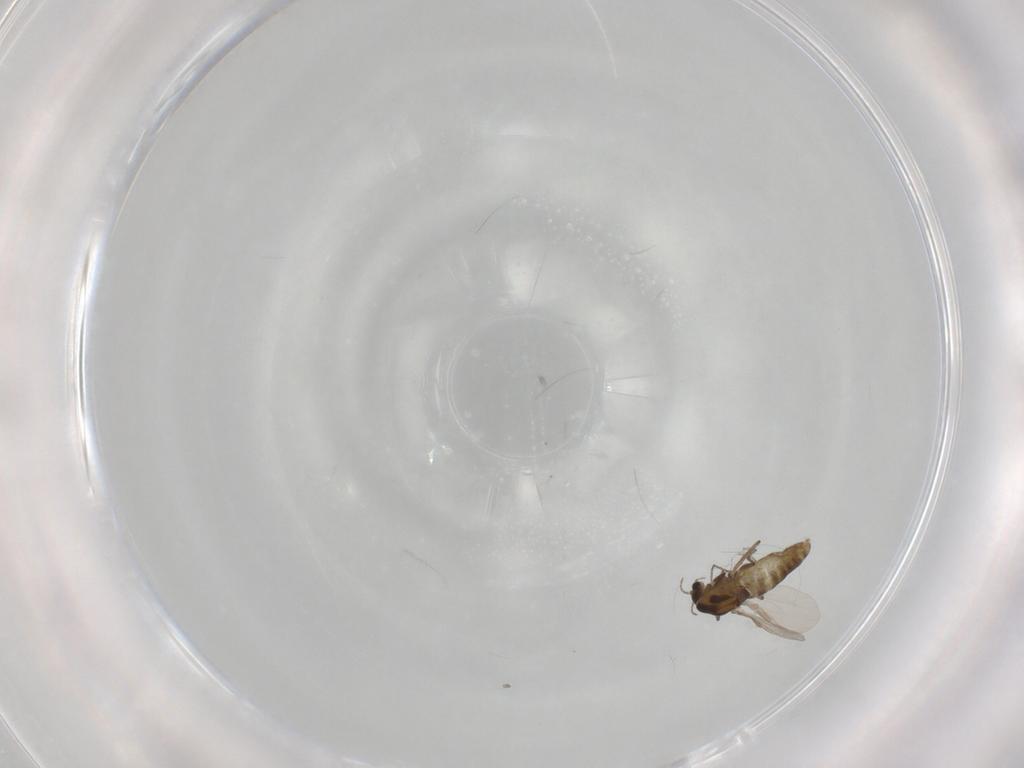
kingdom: Animalia
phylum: Arthropoda
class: Insecta
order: Diptera
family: Chironomidae
